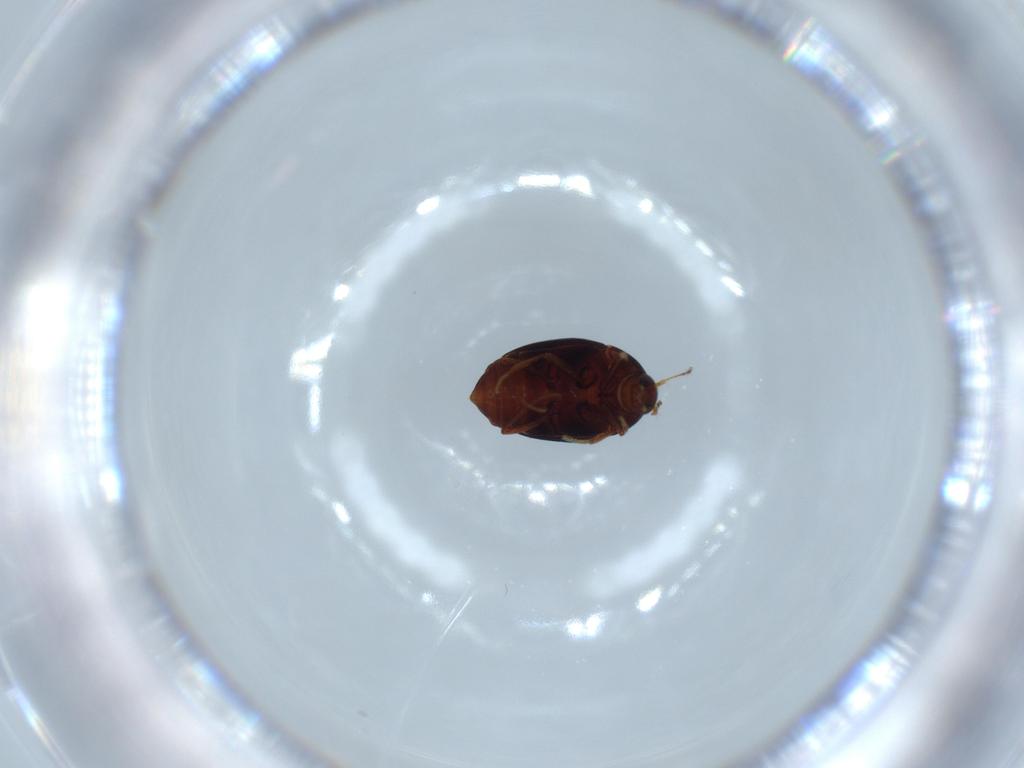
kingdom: Animalia
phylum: Arthropoda
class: Insecta
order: Coleoptera
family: Staphylinidae
